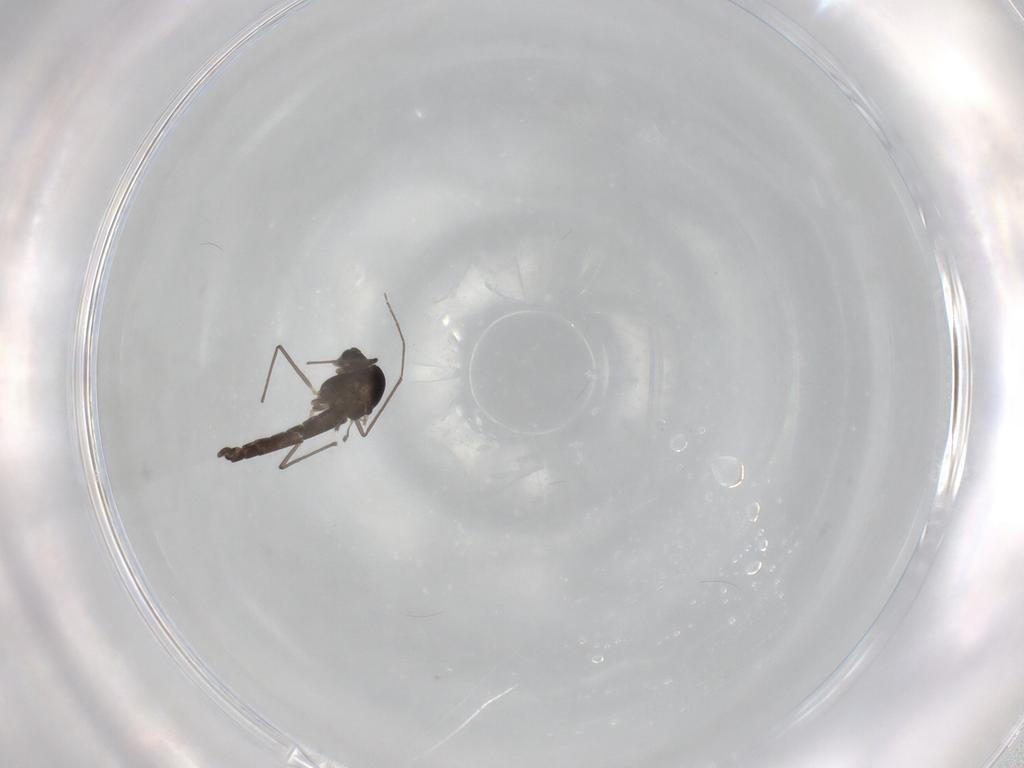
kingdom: Animalia
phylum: Arthropoda
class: Insecta
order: Diptera
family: Chironomidae
